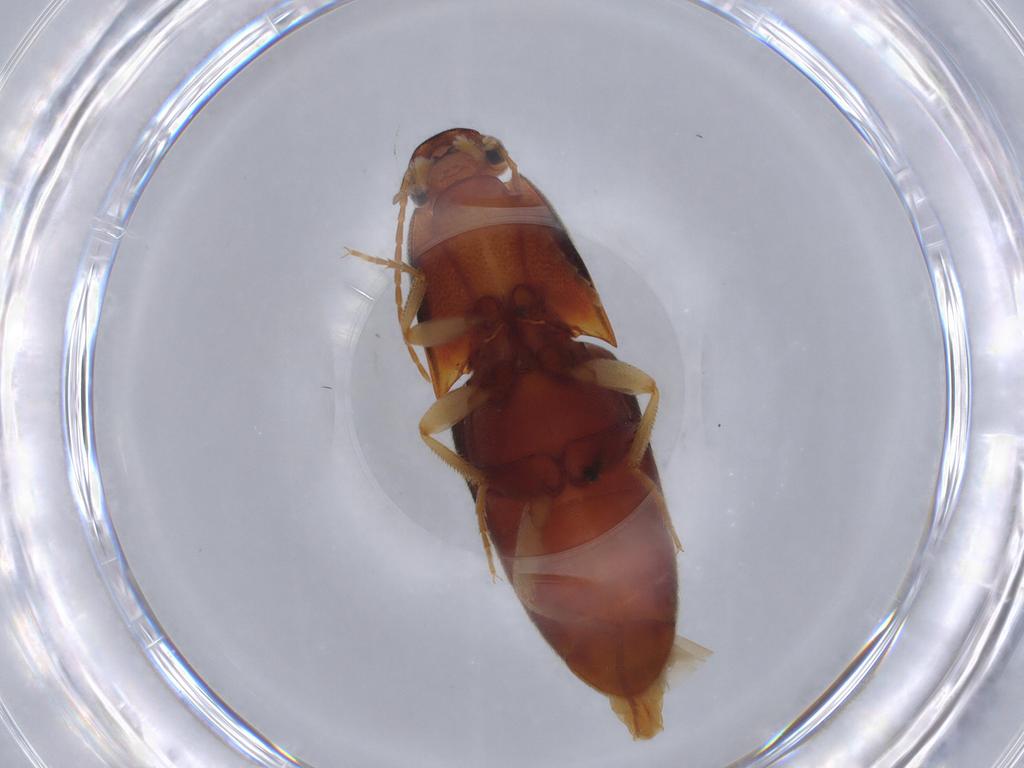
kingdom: Animalia
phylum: Arthropoda
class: Insecta
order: Coleoptera
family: Elateridae
